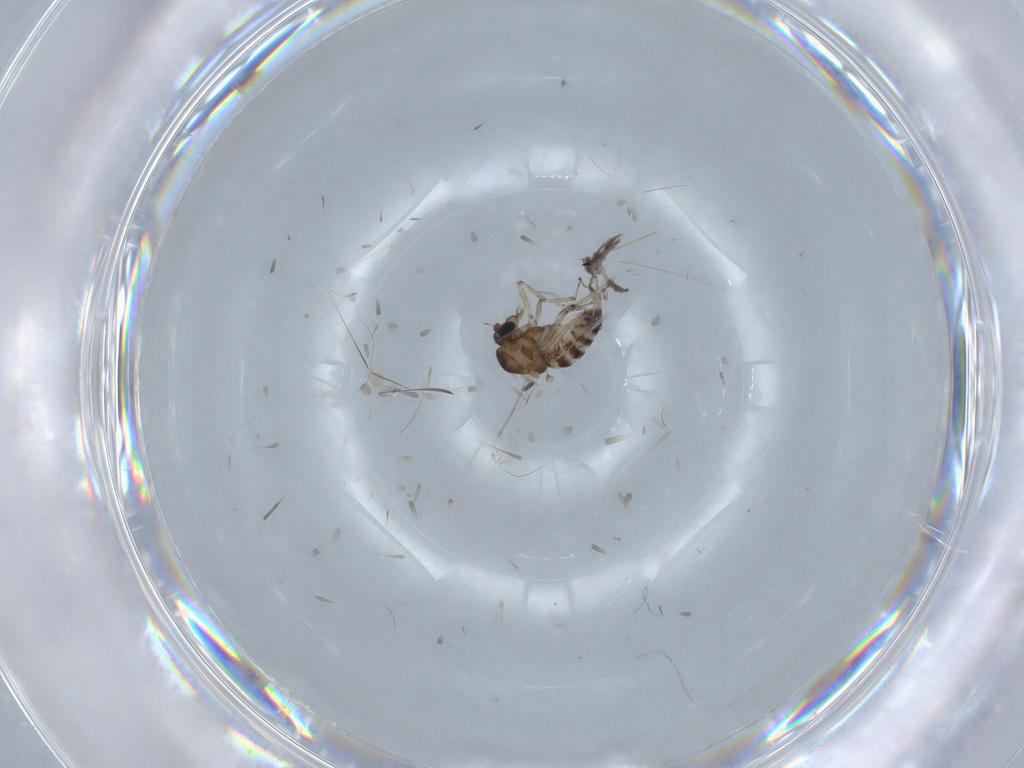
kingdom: Animalia
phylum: Arthropoda
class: Insecta
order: Diptera
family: Ceratopogonidae
